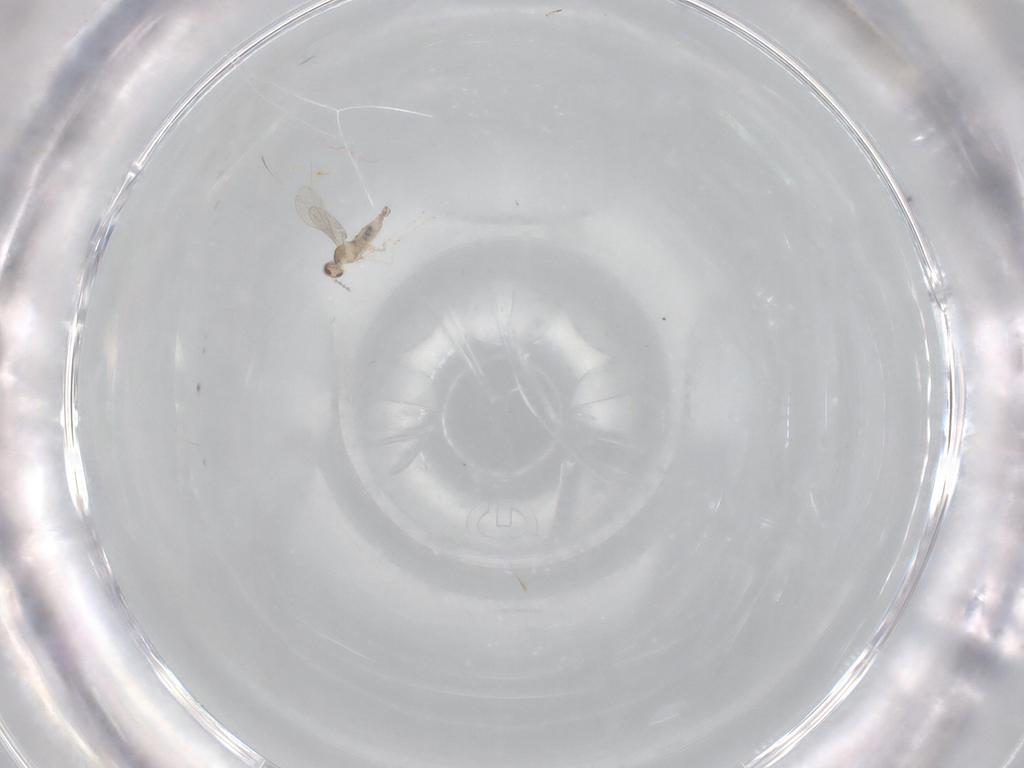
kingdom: Animalia
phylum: Arthropoda
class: Insecta
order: Diptera
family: Cecidomyiidae
